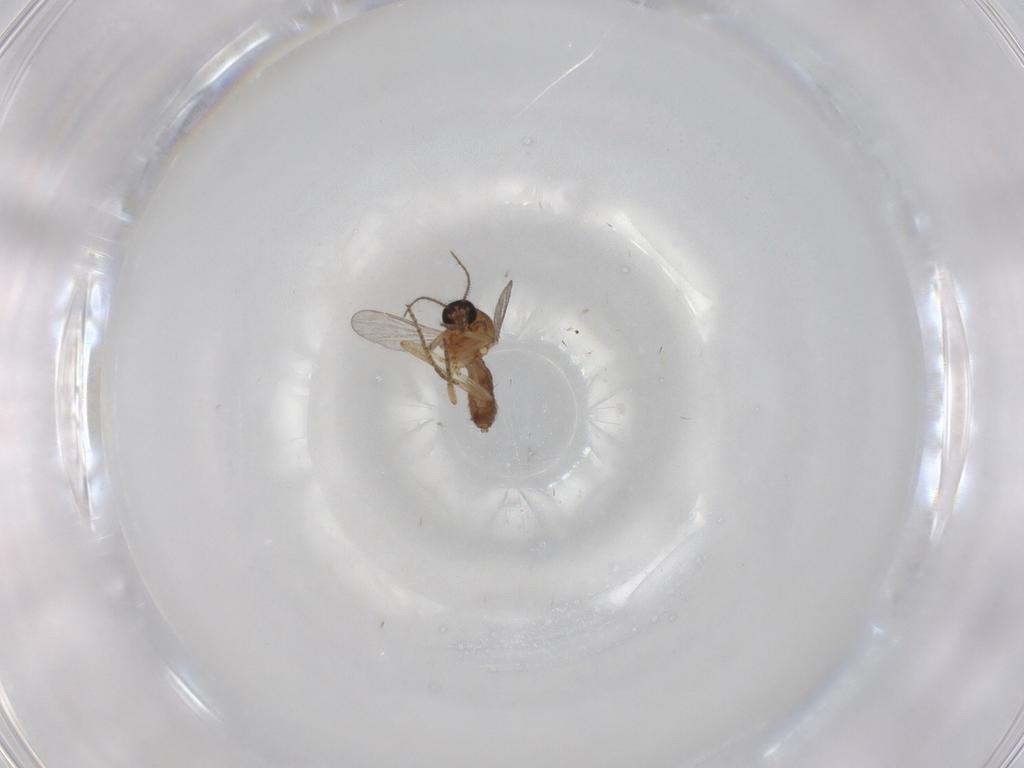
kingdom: Animalia
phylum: Arthropoda
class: Insecta
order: Diptera
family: Ceratopogonidae
